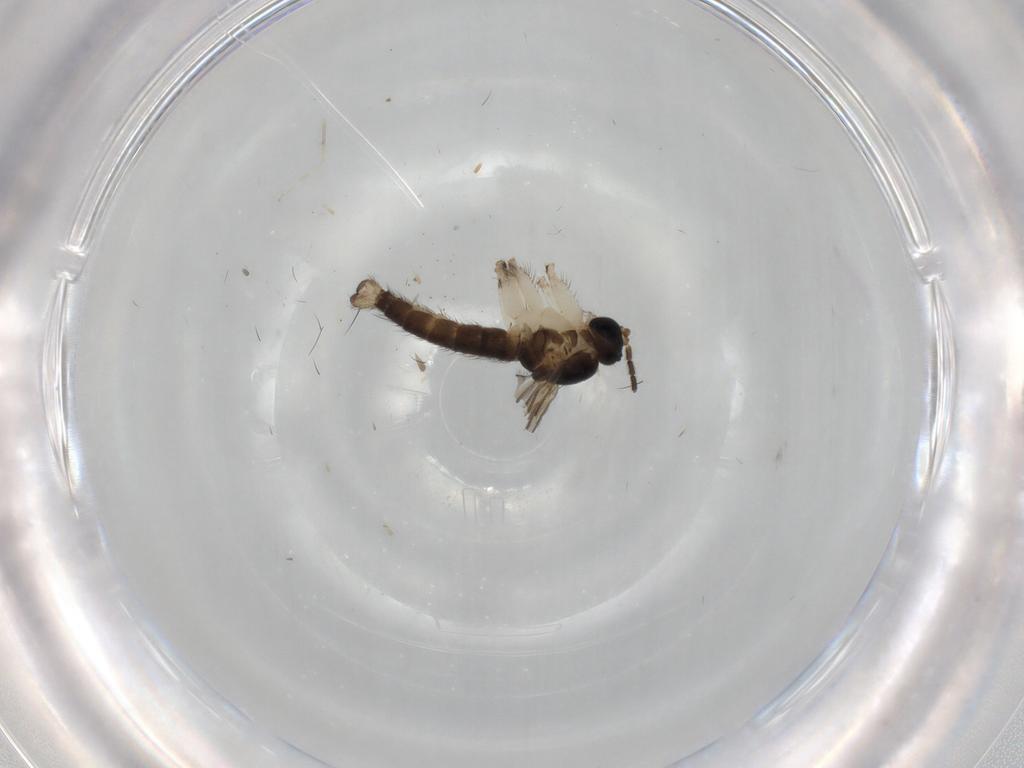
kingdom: Animalia
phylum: Arthropoda
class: Insecta
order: Diptera
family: Sciaridae
